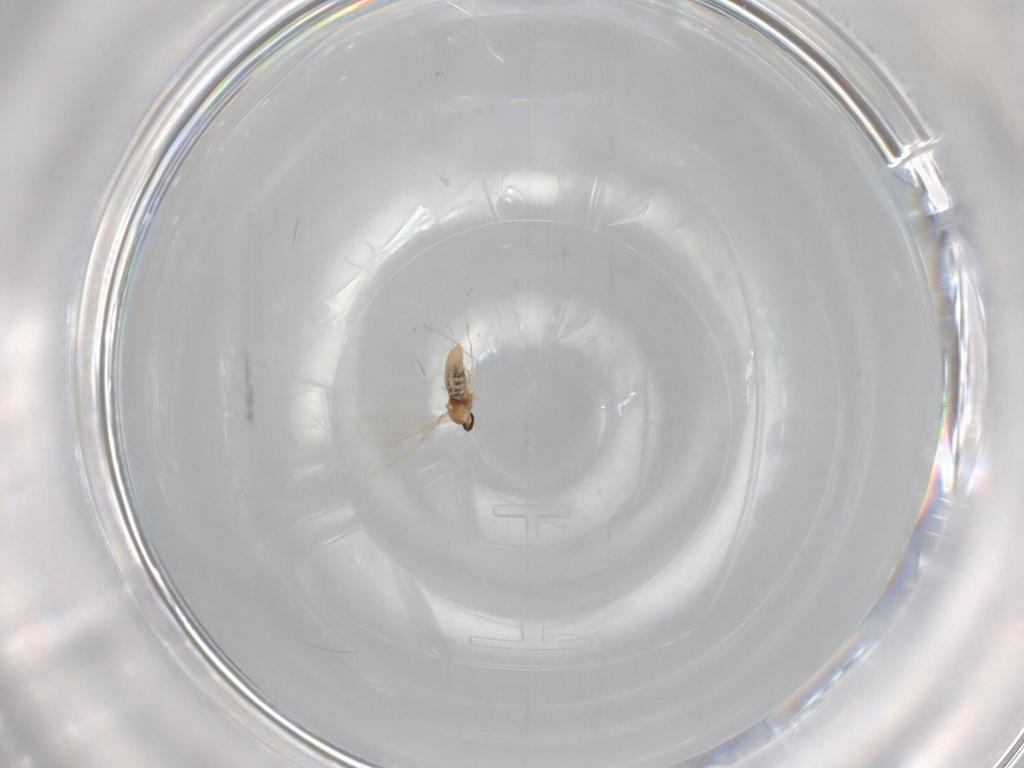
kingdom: Animalia
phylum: Arthropoda
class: Insecta
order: Diptera
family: Cecidomyiidae
